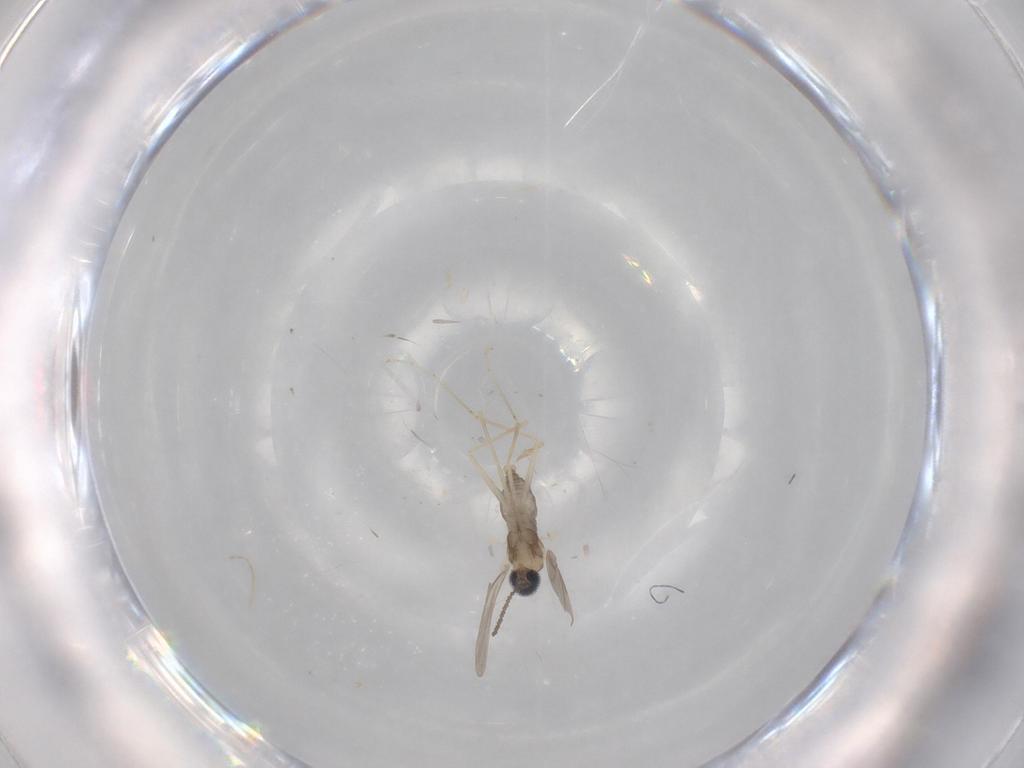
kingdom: Animalia
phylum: Arthropoda
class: Insecta
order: Diptera
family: Cecidomyiidae
